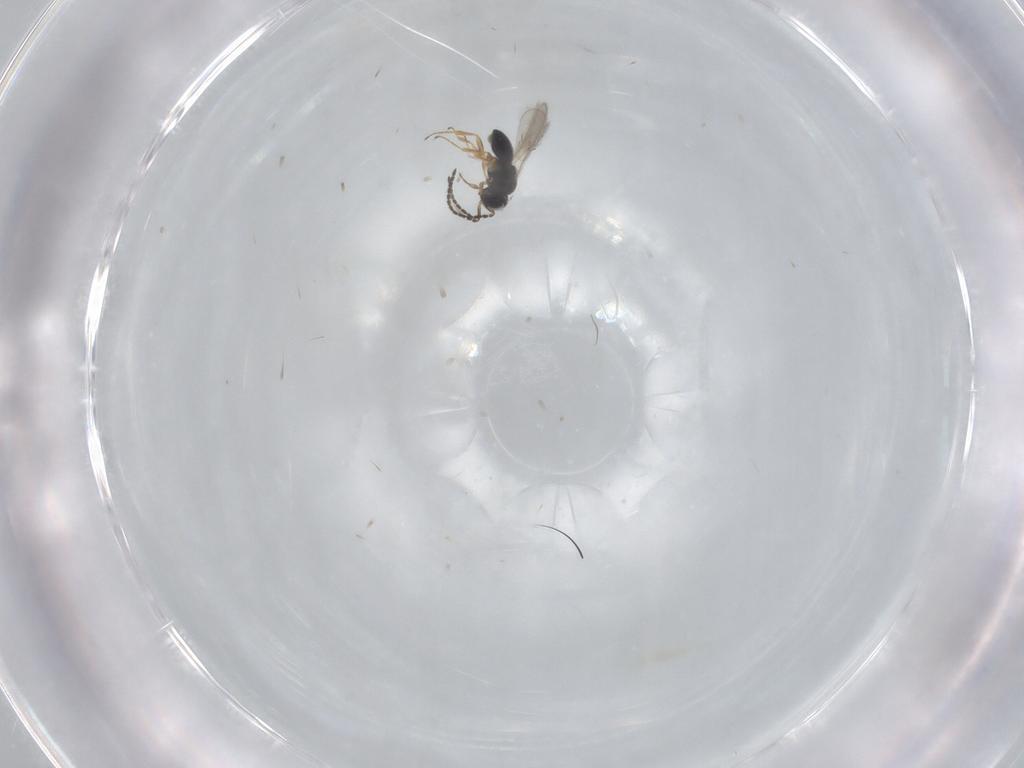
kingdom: Animalia
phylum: Arthropoda
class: Insecta
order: Hymenoptera
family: Scelionidae
